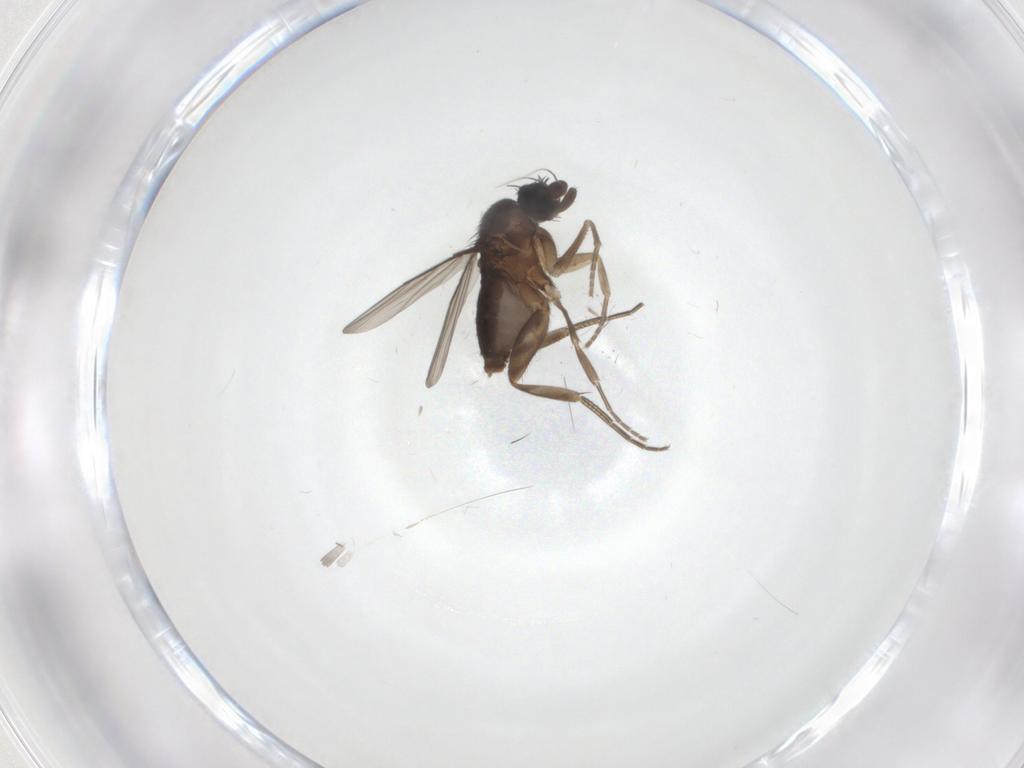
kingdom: Animalia
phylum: Arthropoda
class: Insecta
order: Diptera
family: Phoridae
